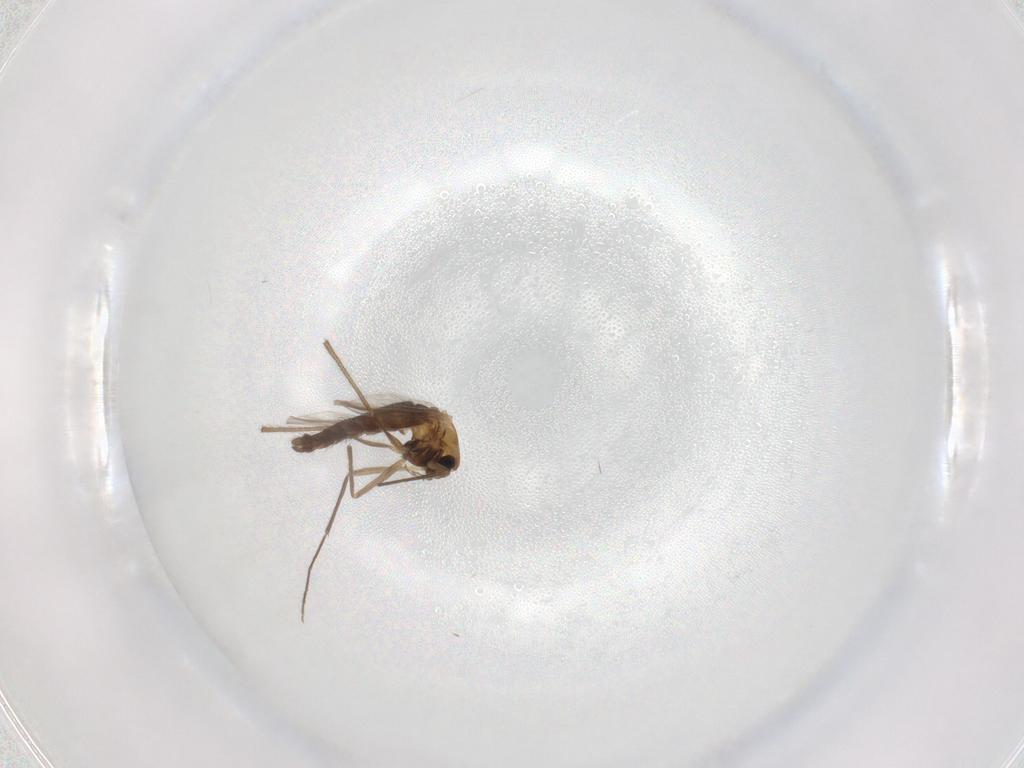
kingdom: Animalia
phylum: Arthropoda
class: Insecta
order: Diptera
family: Chironomidae
